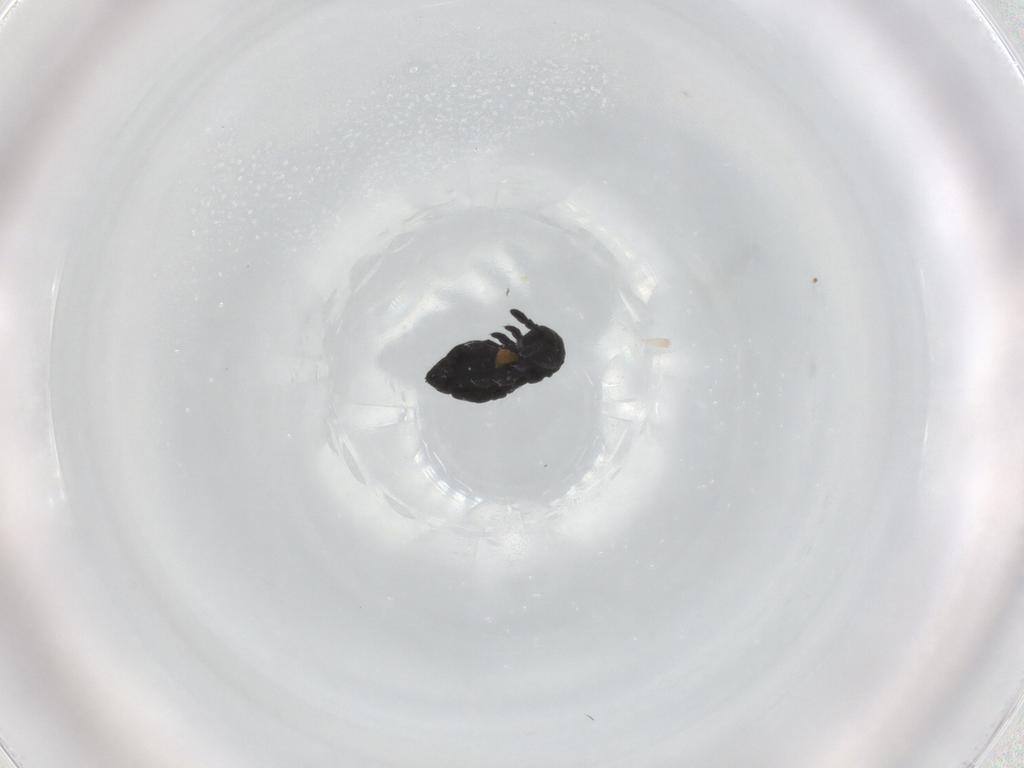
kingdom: Animalia
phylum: Arthropoda
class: Collembola
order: Poduromorpha
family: Hypogastruridae
